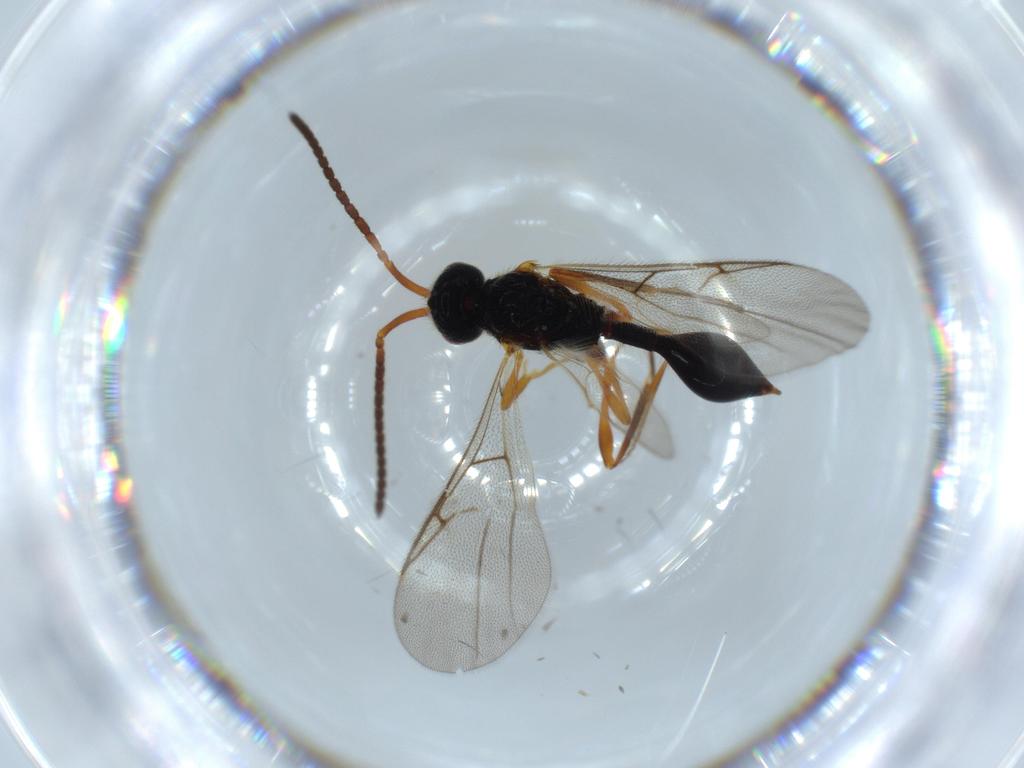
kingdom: Animalia
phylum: Arthropoda
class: Insecta
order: Hymenoptera
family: Diapriidae
